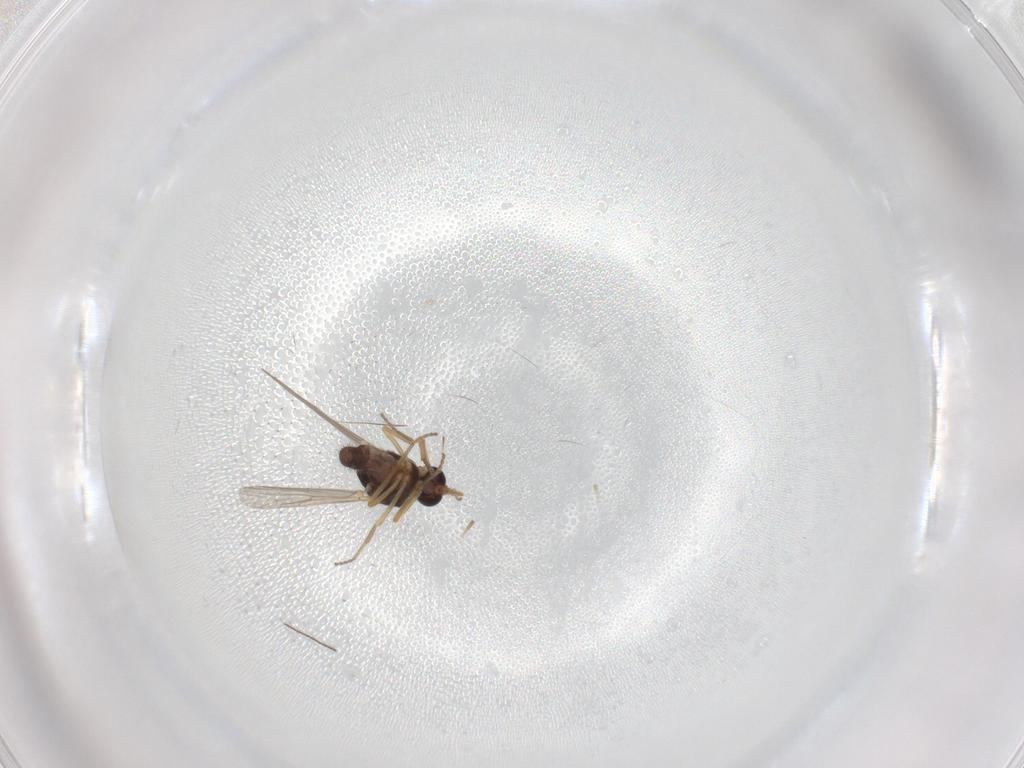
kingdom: Animalia
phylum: Arthropoda
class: Insecta
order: Diptera
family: Ceratopogonidae
